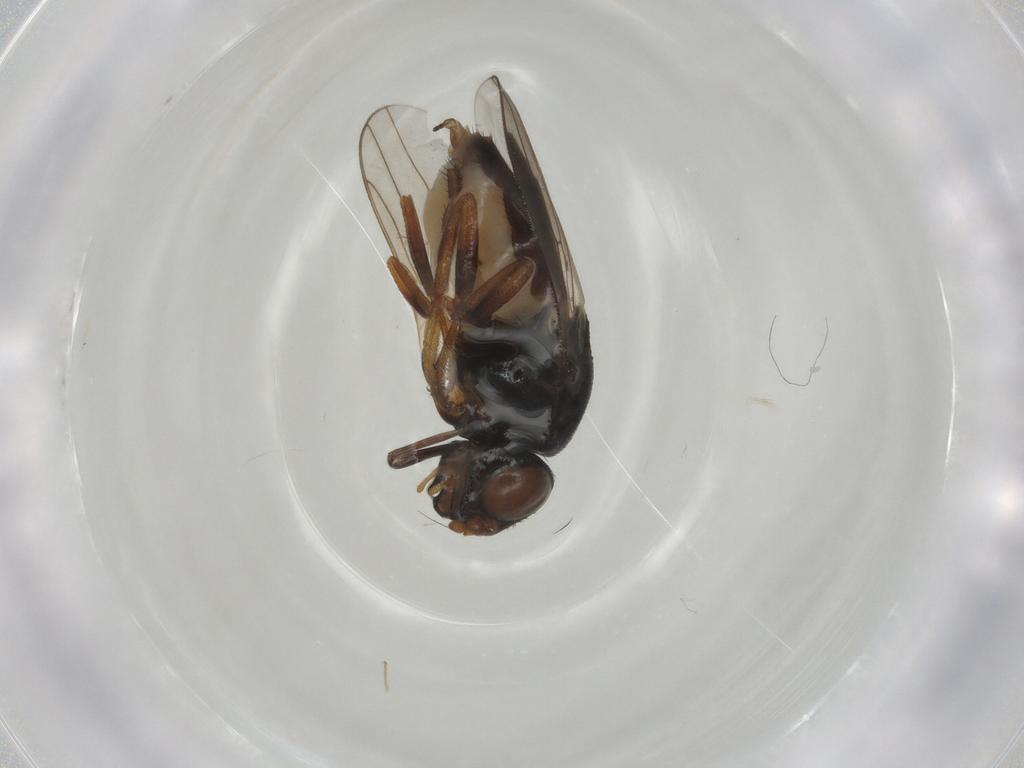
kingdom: Animalia
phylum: Arthropoda
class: Insecta
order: Diptera
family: Chloropidae
